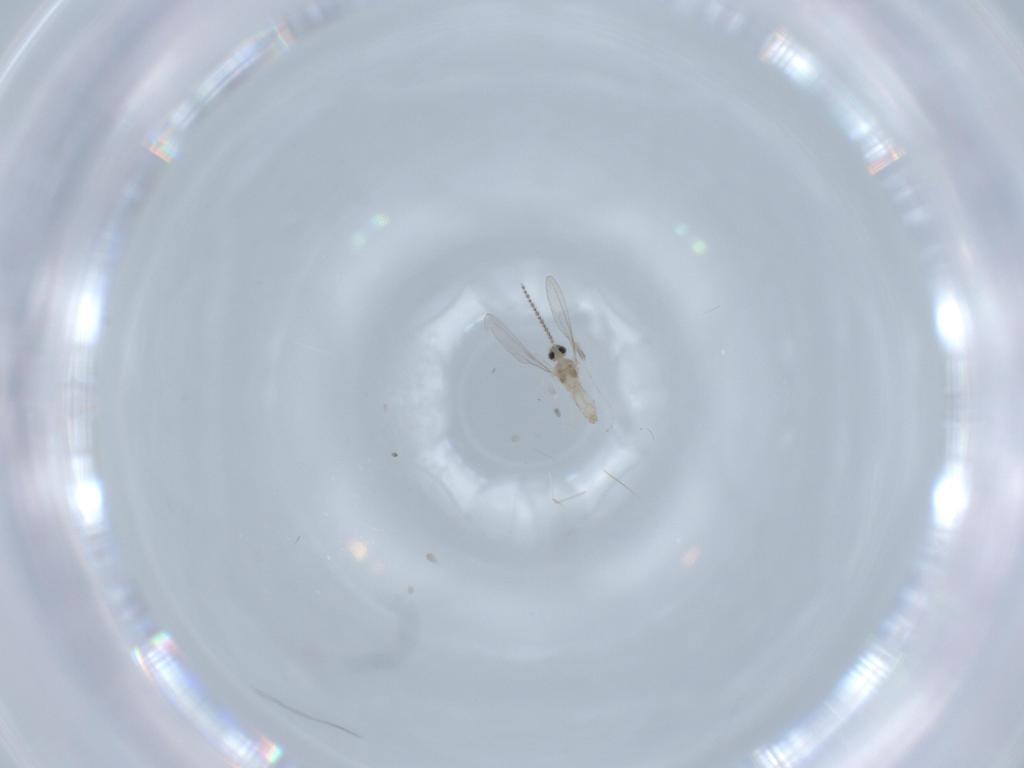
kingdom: Animalia
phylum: Arthropoda
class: Insecta
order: Diptera
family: Cecidomyiidae
